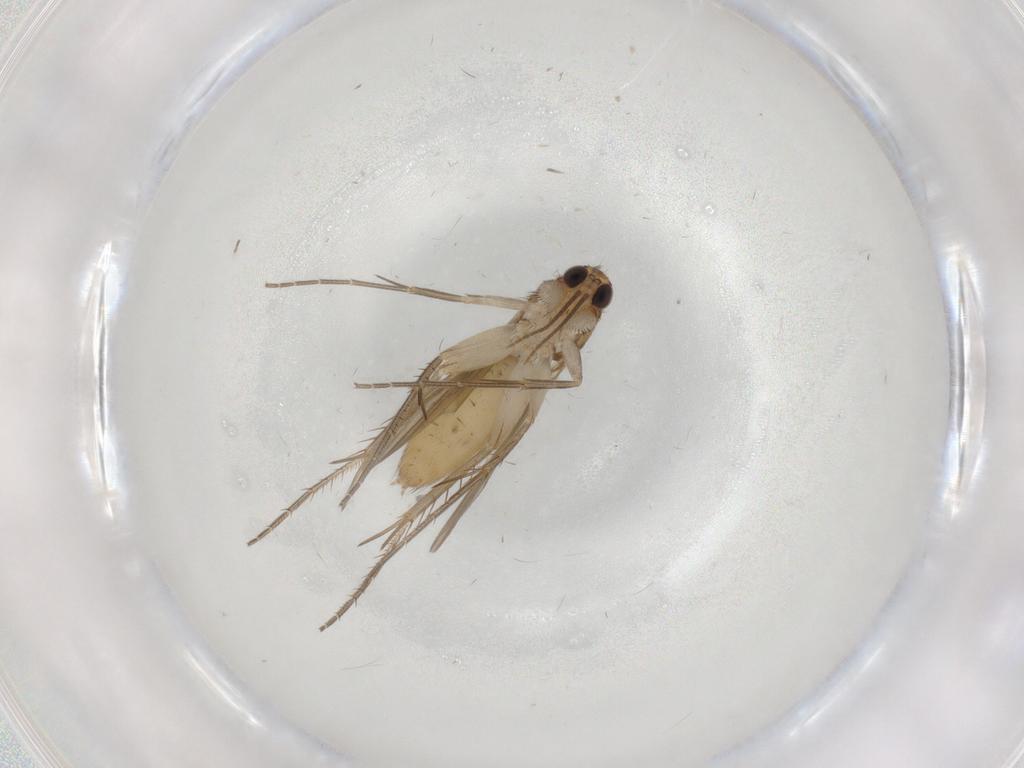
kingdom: Animalia
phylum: Arthropoda
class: Insecta
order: Diptera
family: Mycetophilidae
